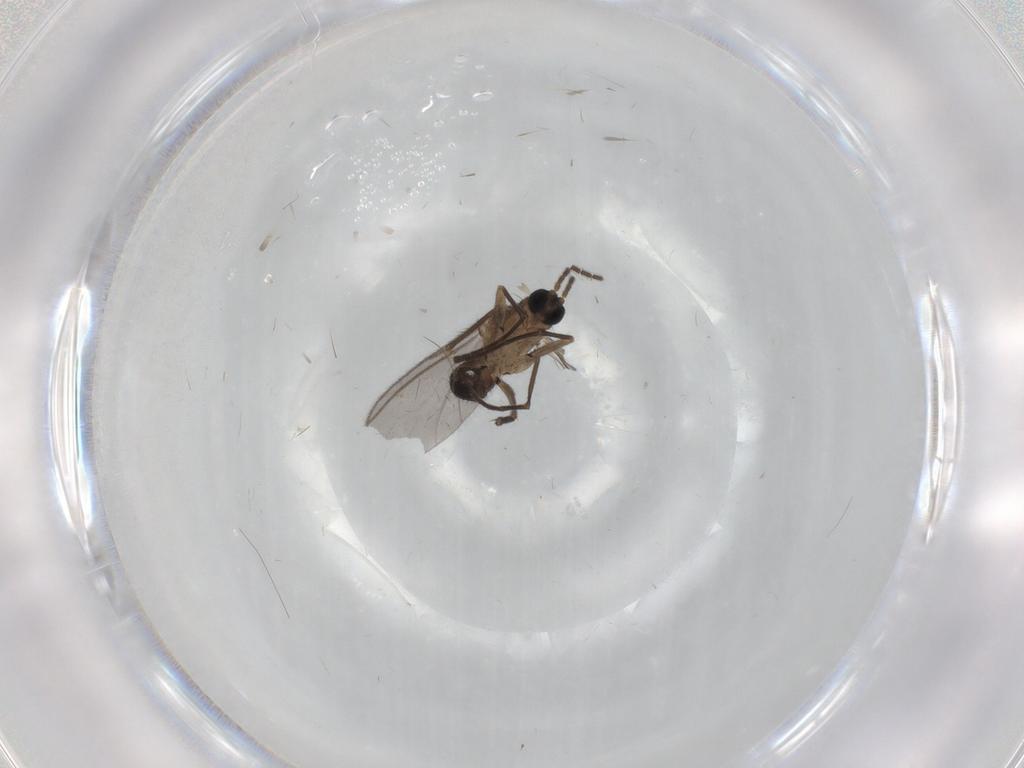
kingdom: Animalia
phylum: Arthropoda
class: Insecta
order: Diptera
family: Sciaridae
